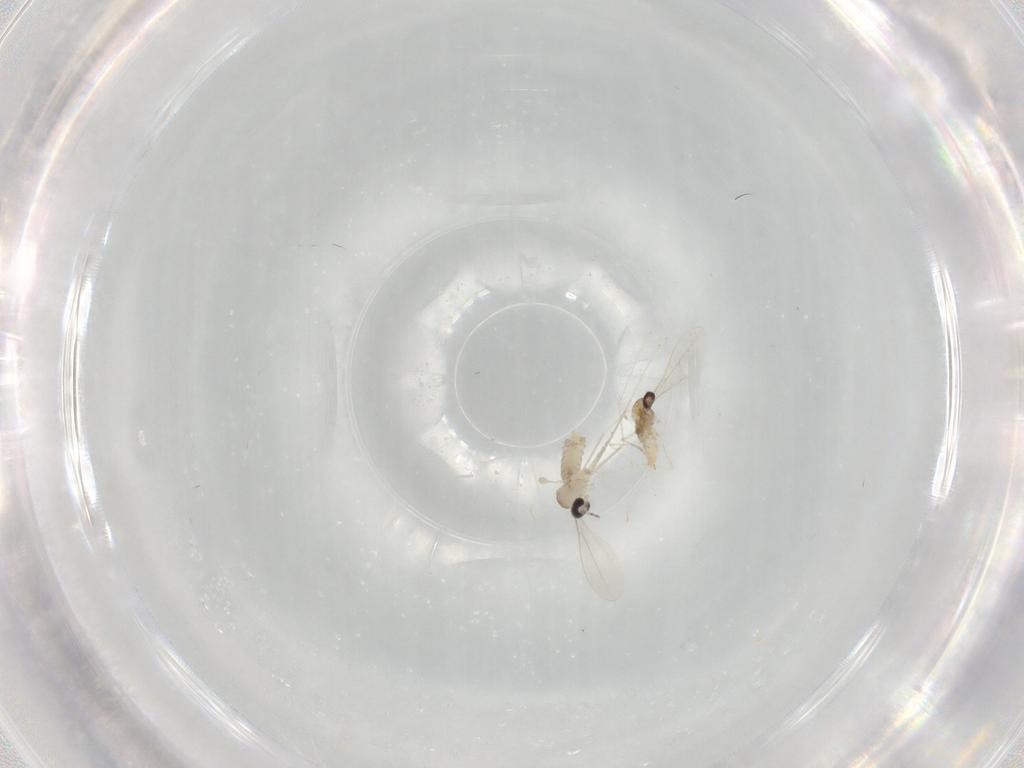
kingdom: Animalia
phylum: Arthropoda
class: Insecta
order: Diptera
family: Cecidomyiidae
